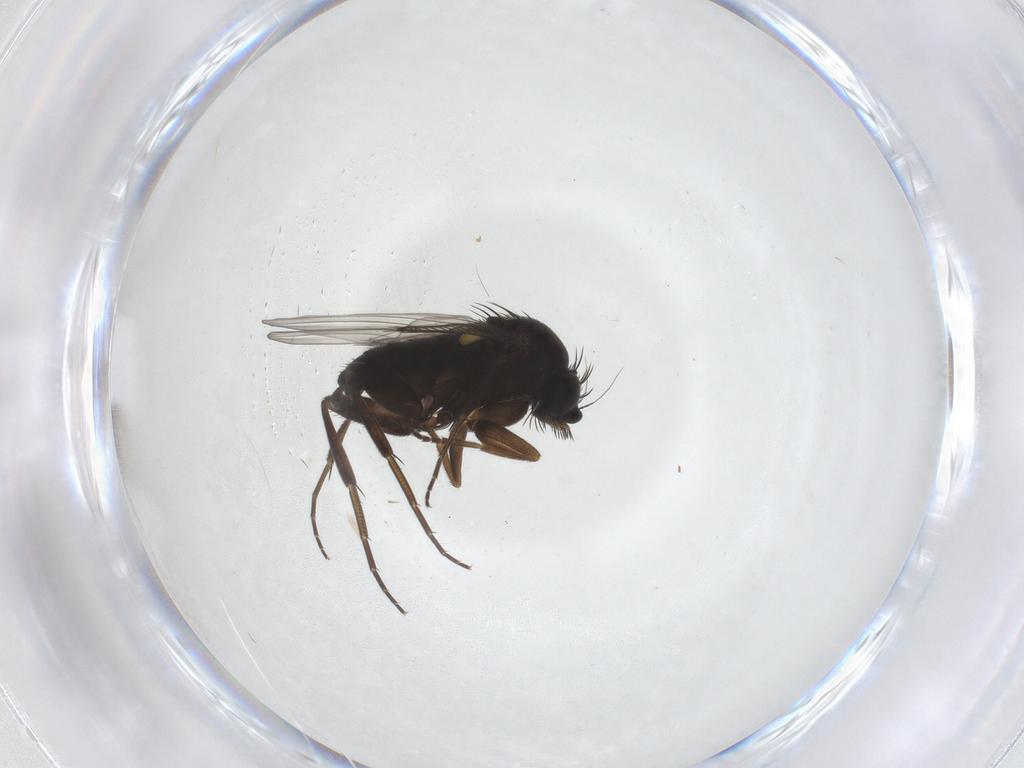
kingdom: Animalia
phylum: Arthropoda
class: Insecta
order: Diptera
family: Phoridae
